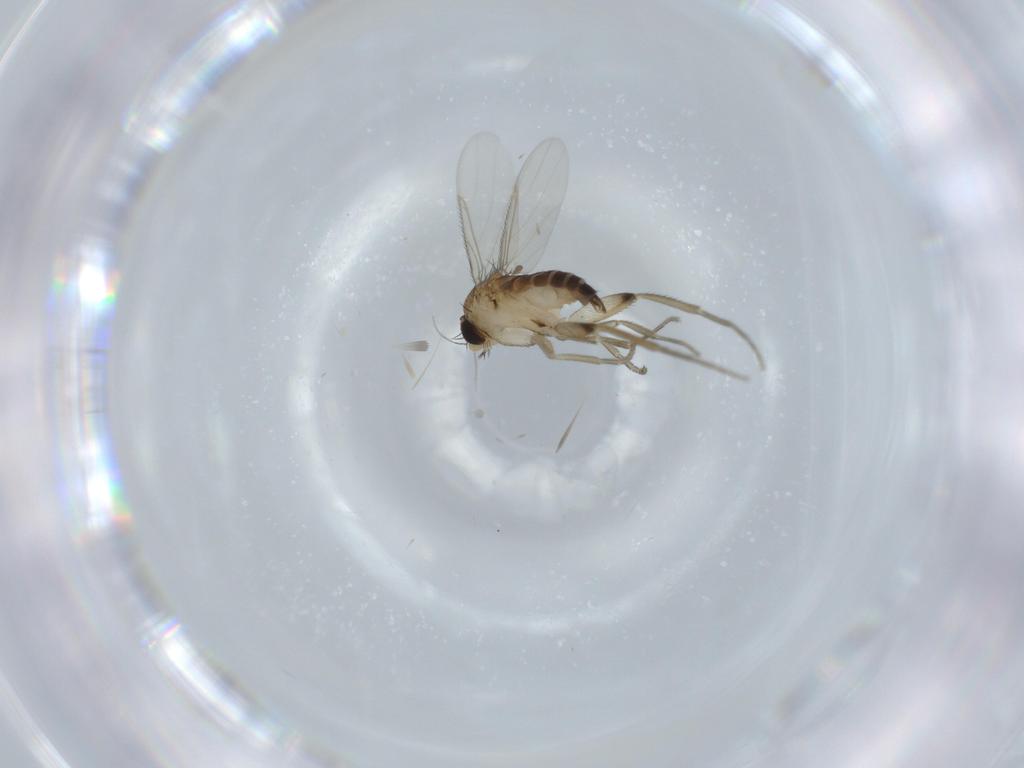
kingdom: Animalia
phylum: Arthropoda
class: Insecta
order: Diptera
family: Phoridae
